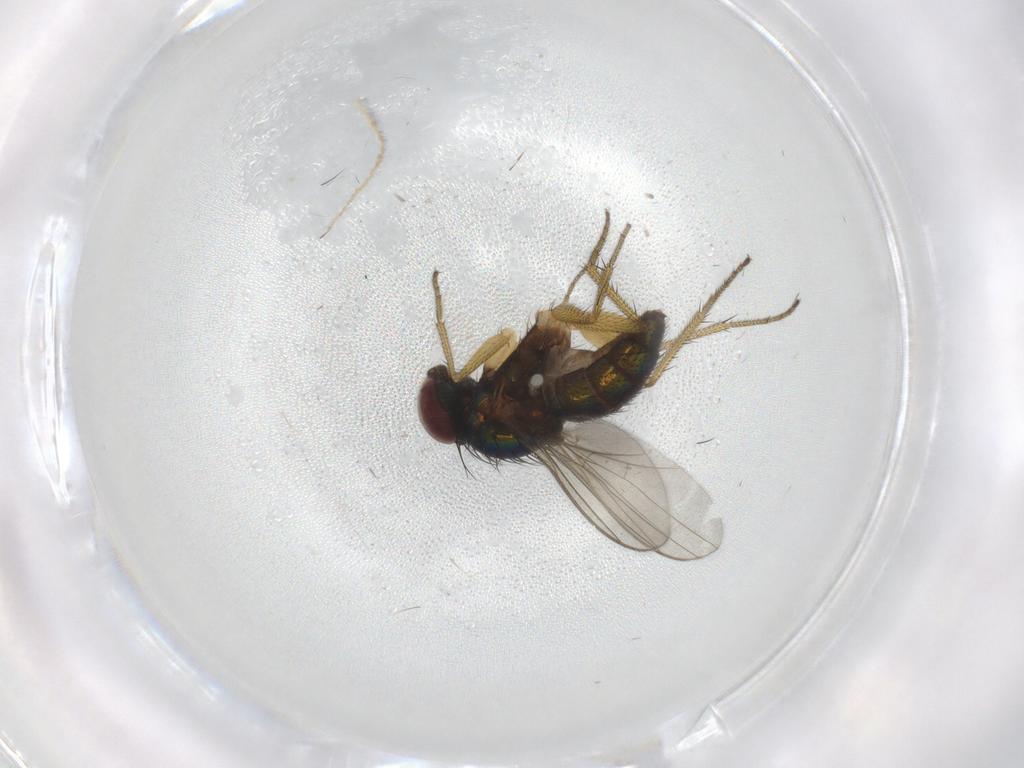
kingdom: Animalia
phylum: Arthropoda
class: Insecta
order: Diptera
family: Dolichopodidae
